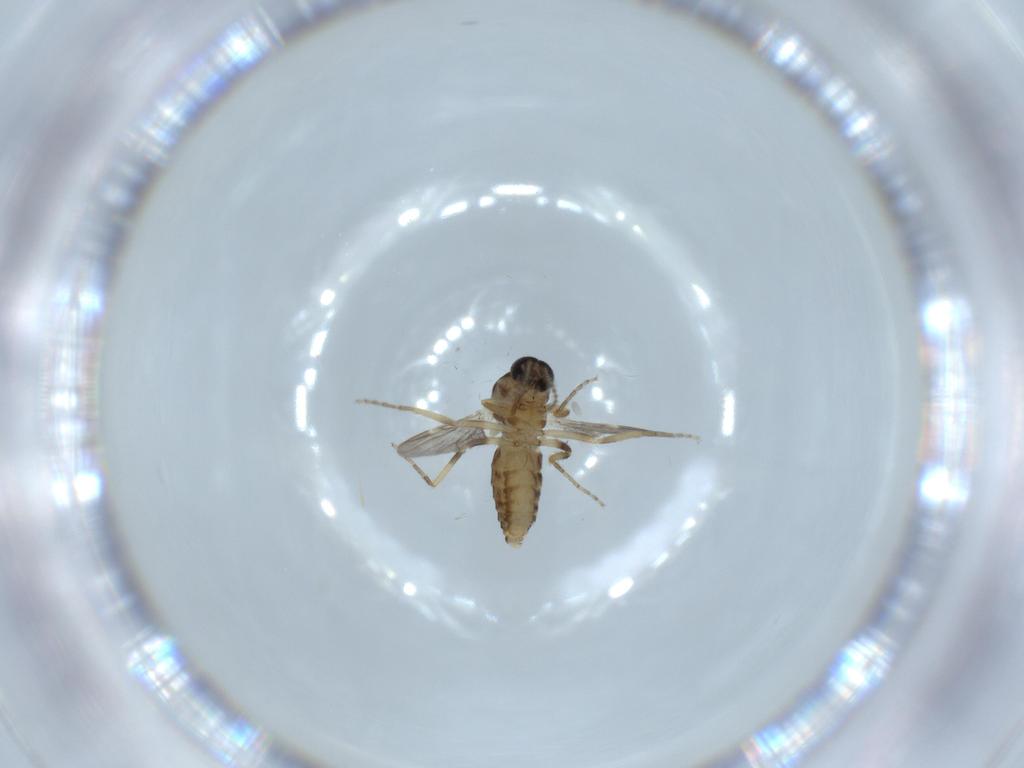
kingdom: Animalia
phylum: Arthropoda
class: Insecta
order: Diptera
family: Ceratopogonidae
